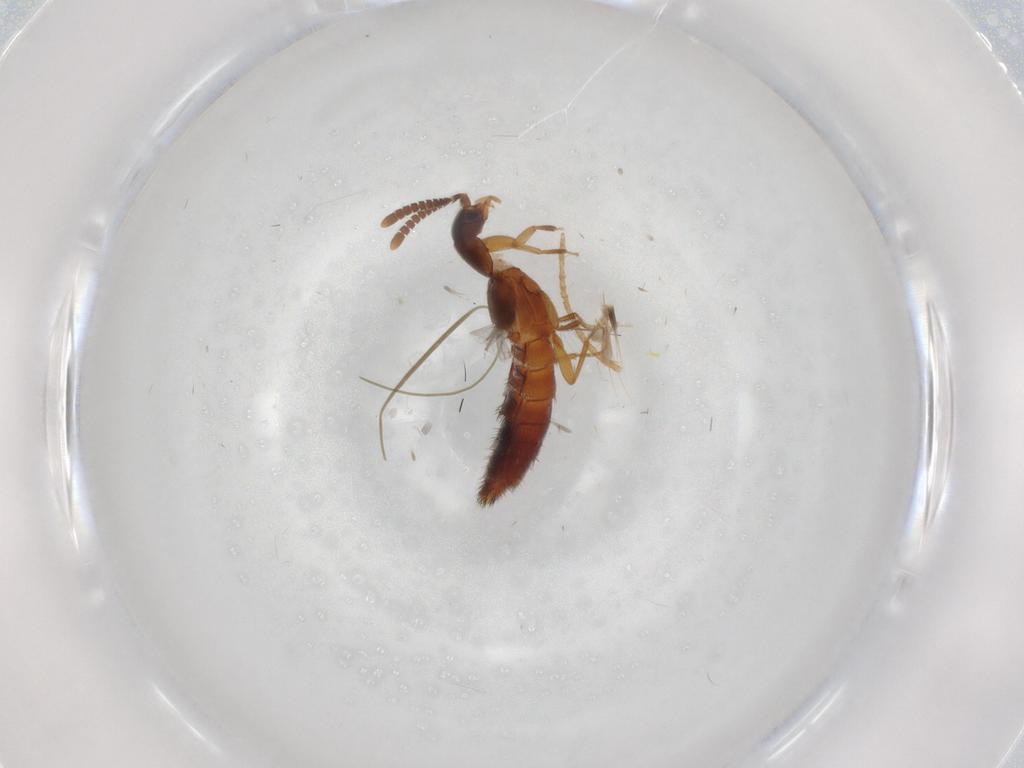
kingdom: Animalia
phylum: Arthropoda
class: Insecta
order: Coleoptera
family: Staphylinidae
